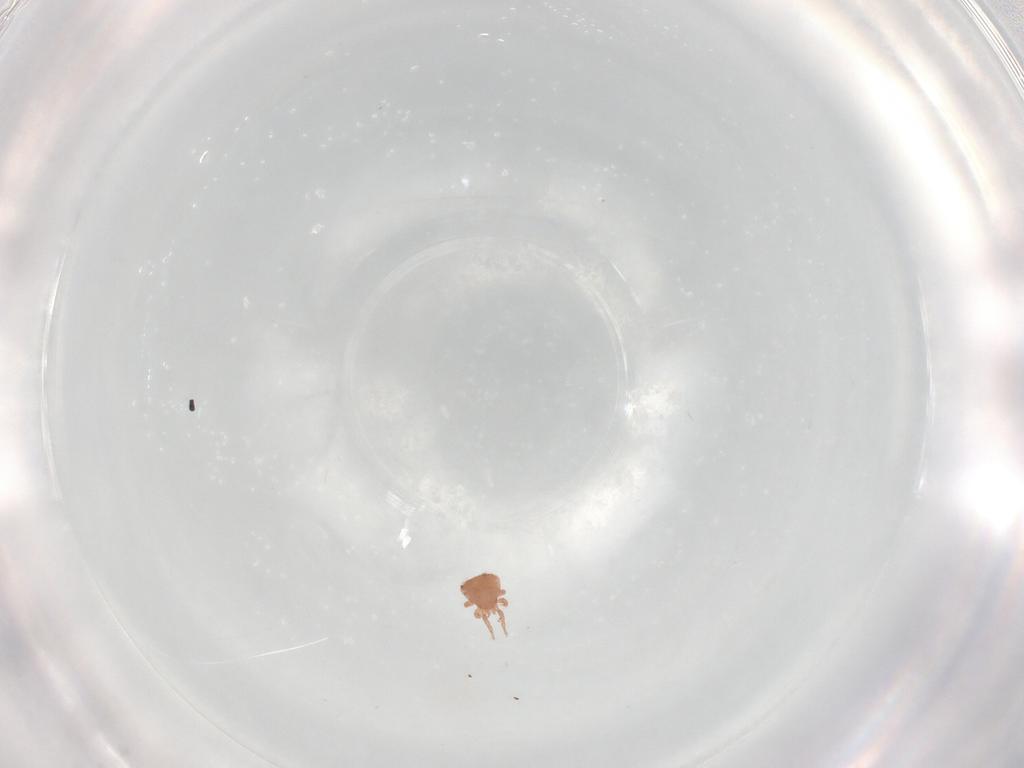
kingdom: Animalia
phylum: Arthropoda
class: Arachnida
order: Mesostigmata
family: Zerconidae
